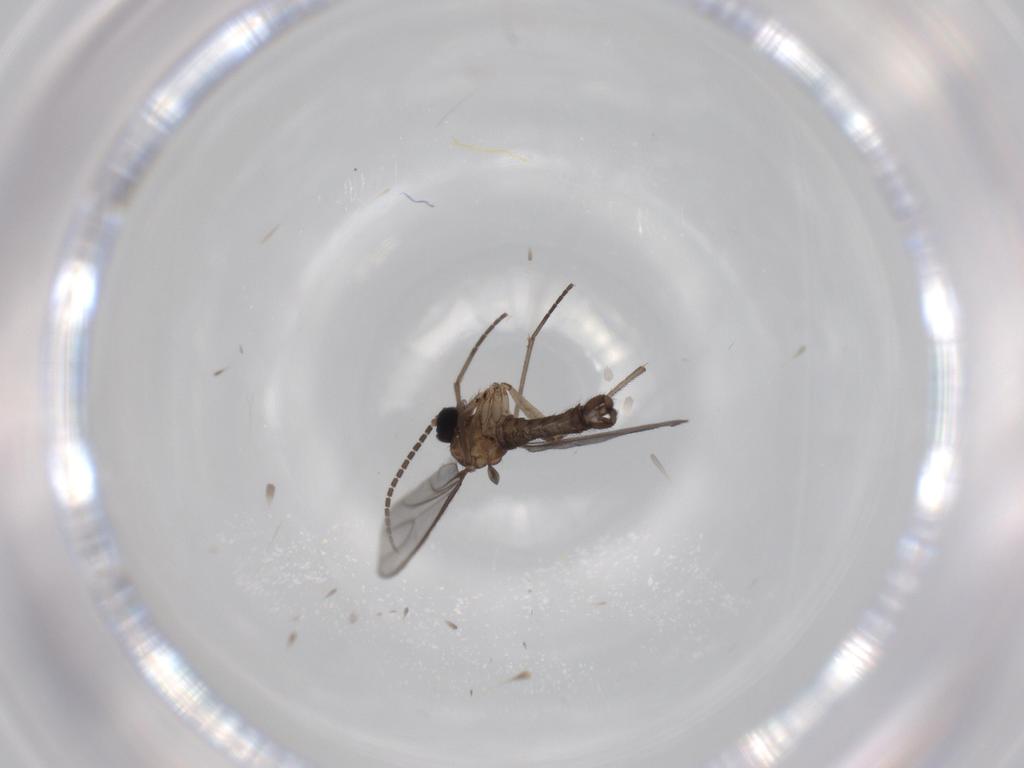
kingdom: Animalia
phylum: Arthropoda
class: Insecta
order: Diptera
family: Sciaridae
